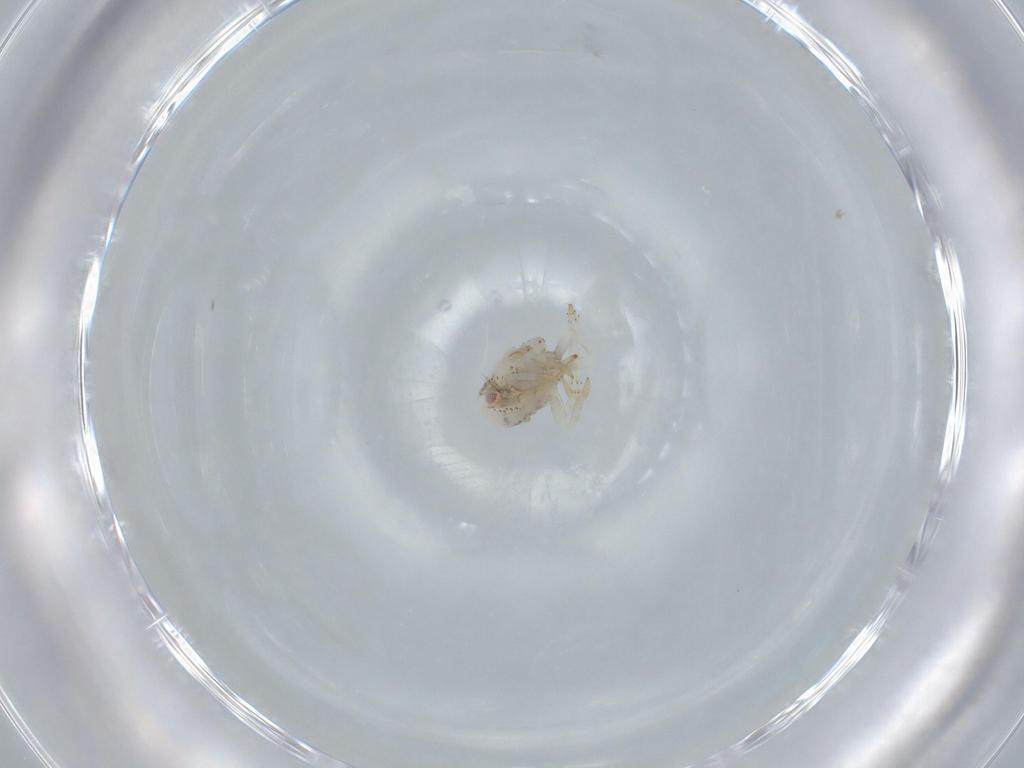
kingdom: Animalia
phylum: Arthropoda
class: Insecta
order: Hemiptera
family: Acanaloniidae
